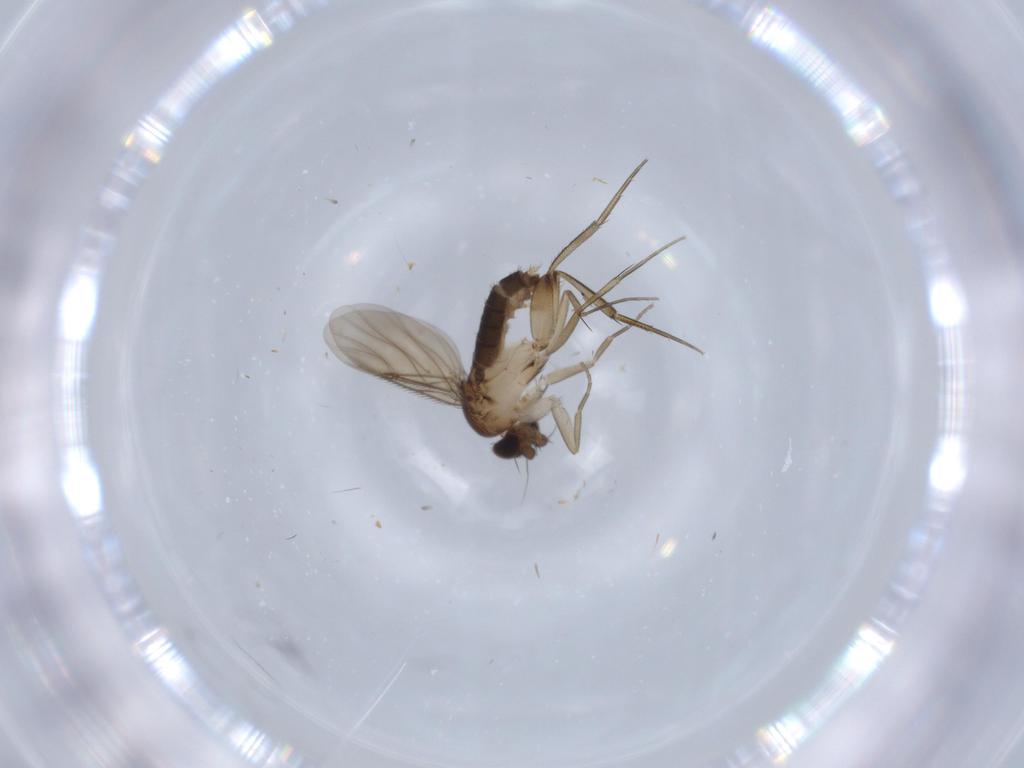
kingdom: Animalia
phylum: Arthropoda
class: Insecta
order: Diptera
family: Phoridae
